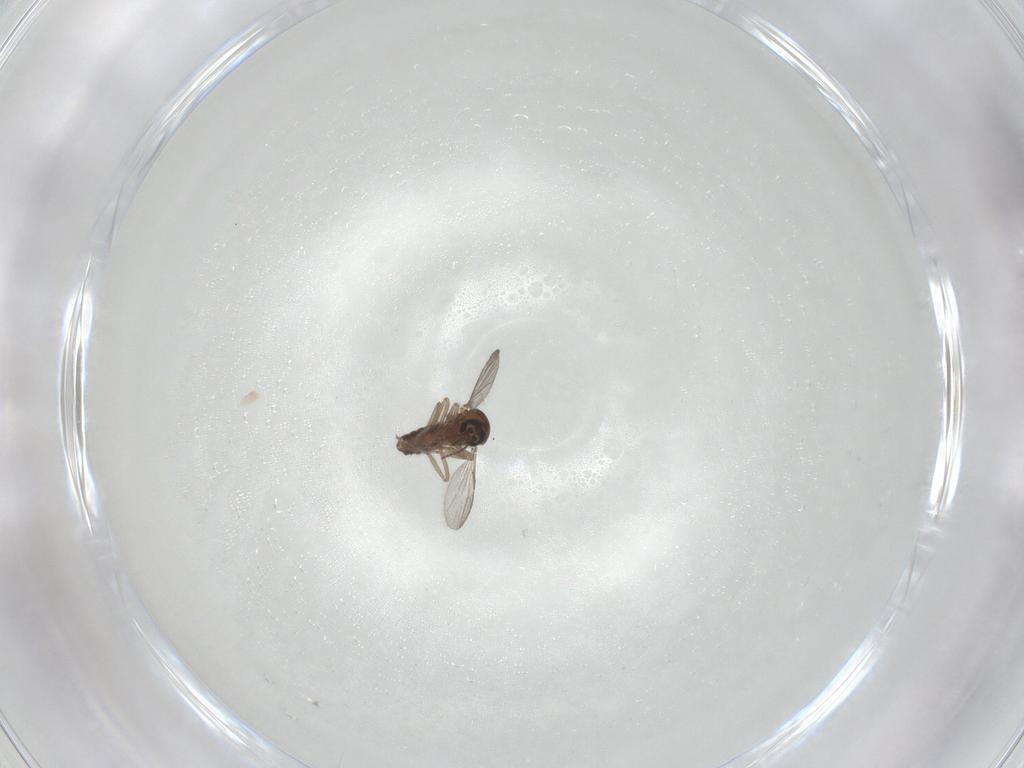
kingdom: Animalia
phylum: Arthropoda
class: Insecta
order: Diptera
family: Ceratopogonidae
